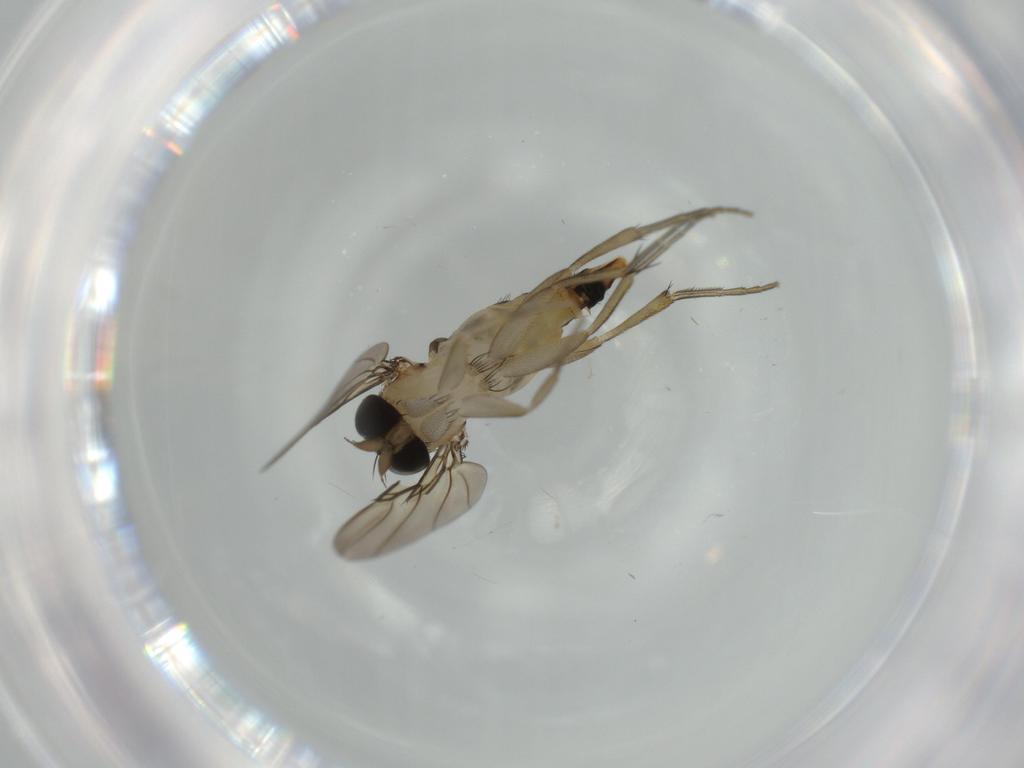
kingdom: Animalia
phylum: Arthropoda
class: Insecta
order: Diptera
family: Phoridae
